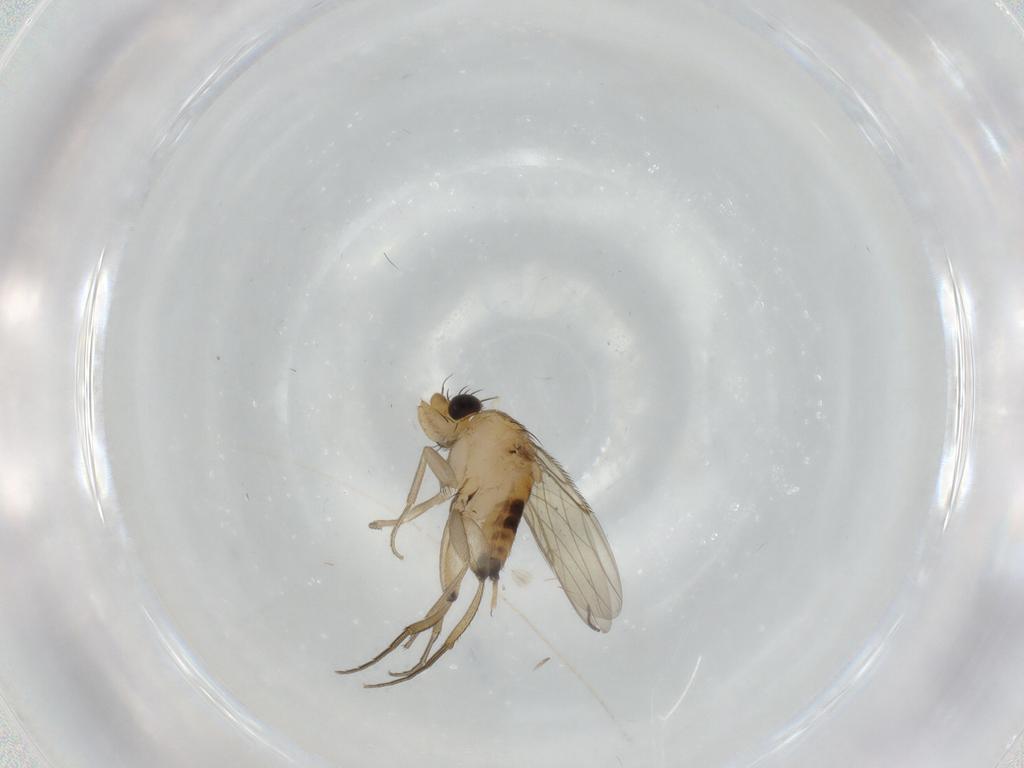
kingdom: Animalia
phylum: Arthropoda
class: Insecta
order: Diptera
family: Phoridae
